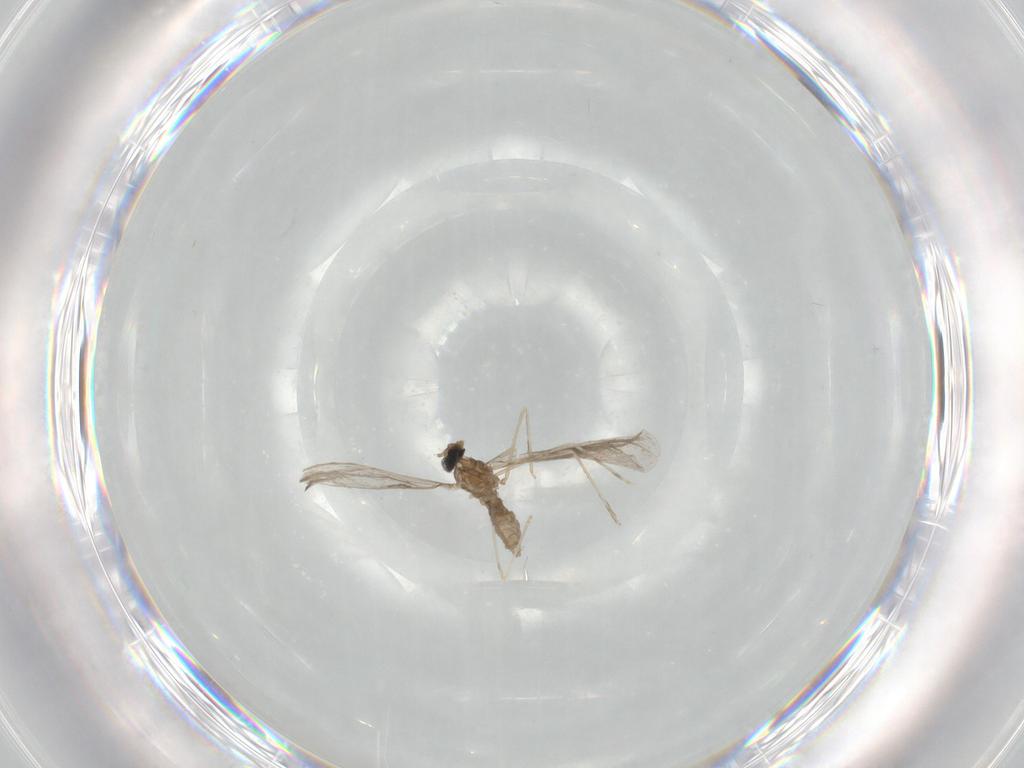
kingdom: Animalia
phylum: Arthropoda
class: Insecta
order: Diptera
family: Cecidomyiidae
